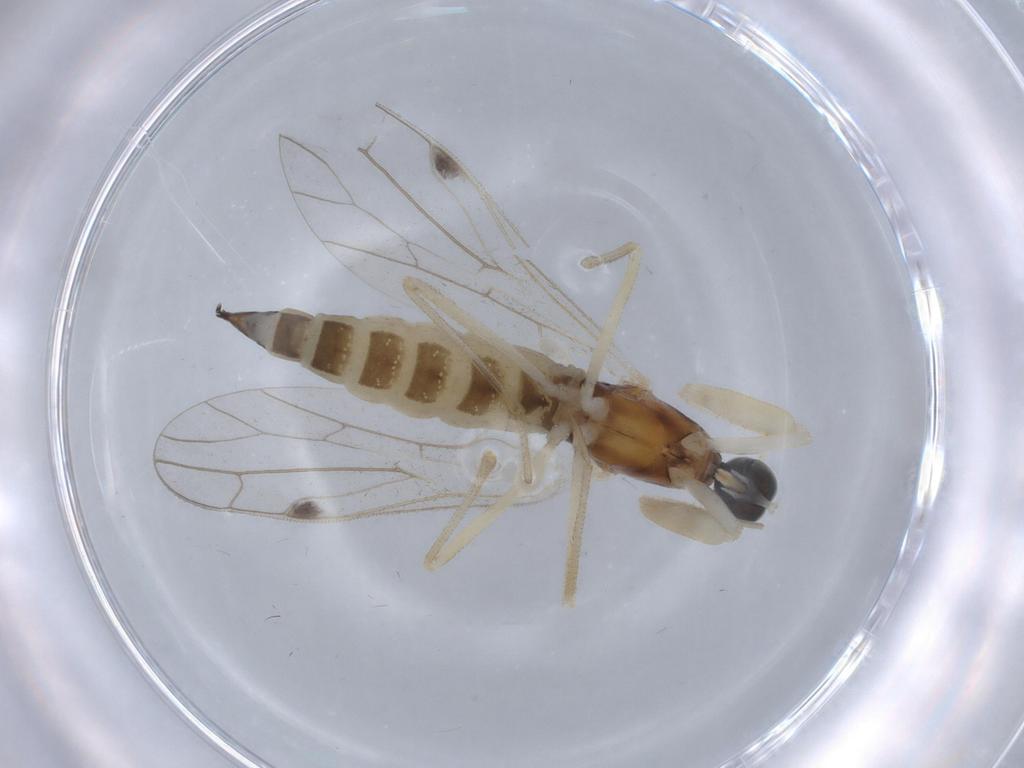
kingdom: Animalia
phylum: Arthropoda
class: Insecta
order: Diptera
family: Empididae
